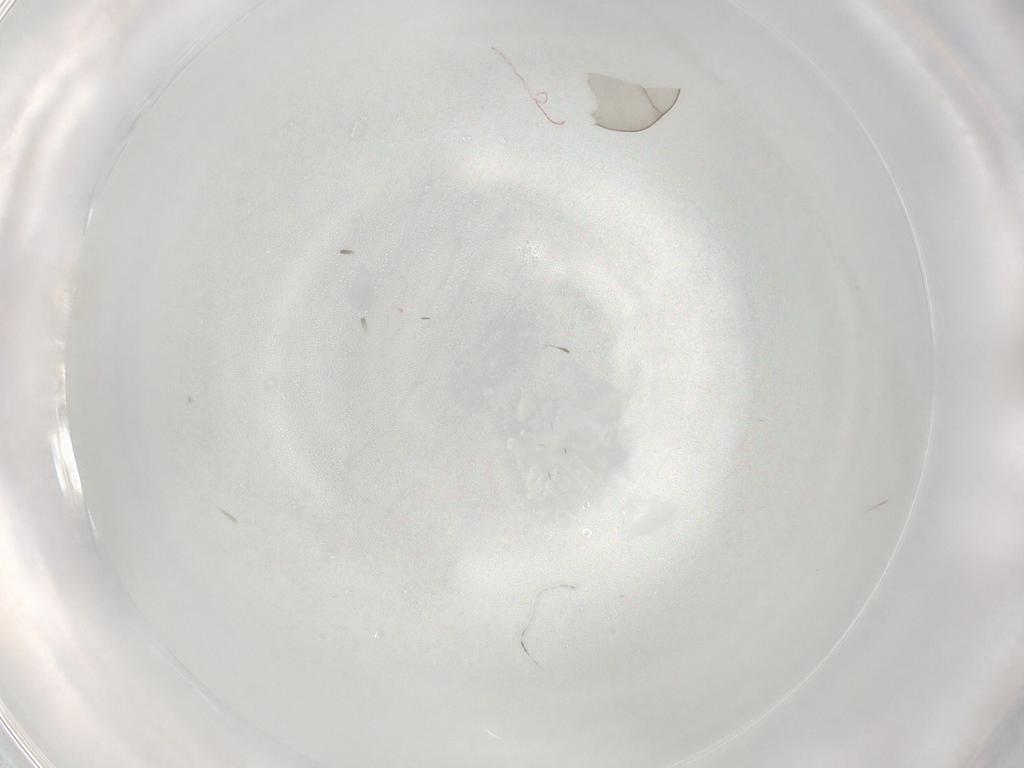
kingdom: Animalia
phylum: Arthropoda
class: Insecta
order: Diptera
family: Cecidomyiidae
